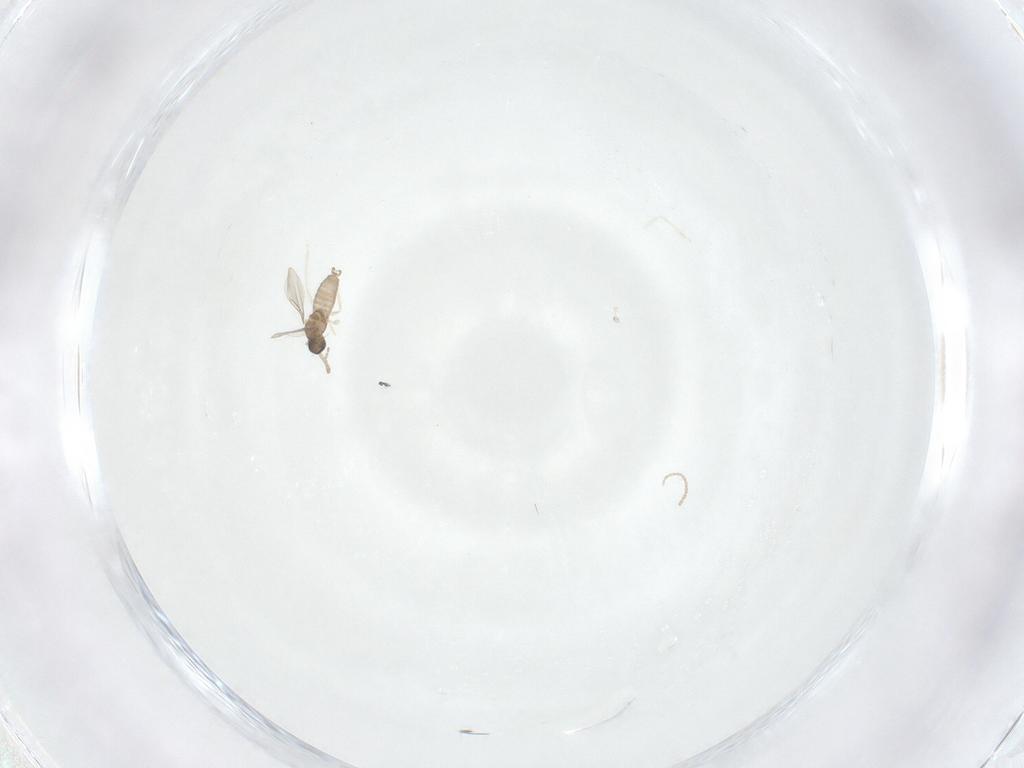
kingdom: Animalia
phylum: Arthropoda
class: Insecta
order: Diptera
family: Cecidomyiidae
